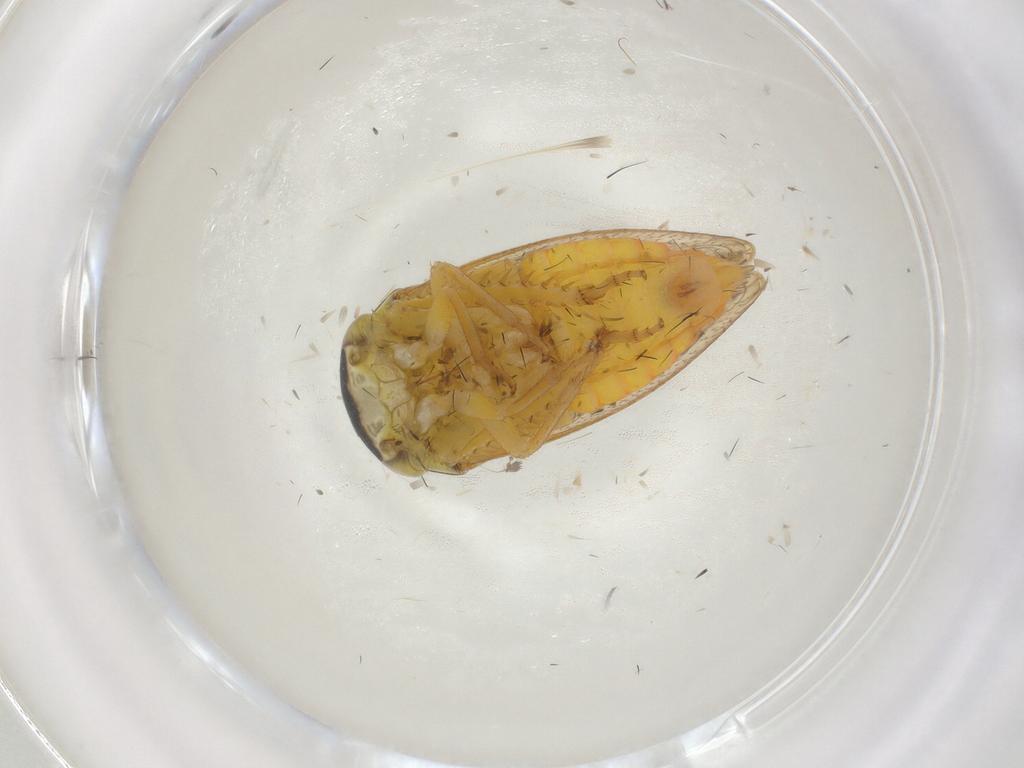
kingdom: Animalia
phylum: Arthropoda
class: Insecta
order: Hemiptera
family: Cicadellidae
